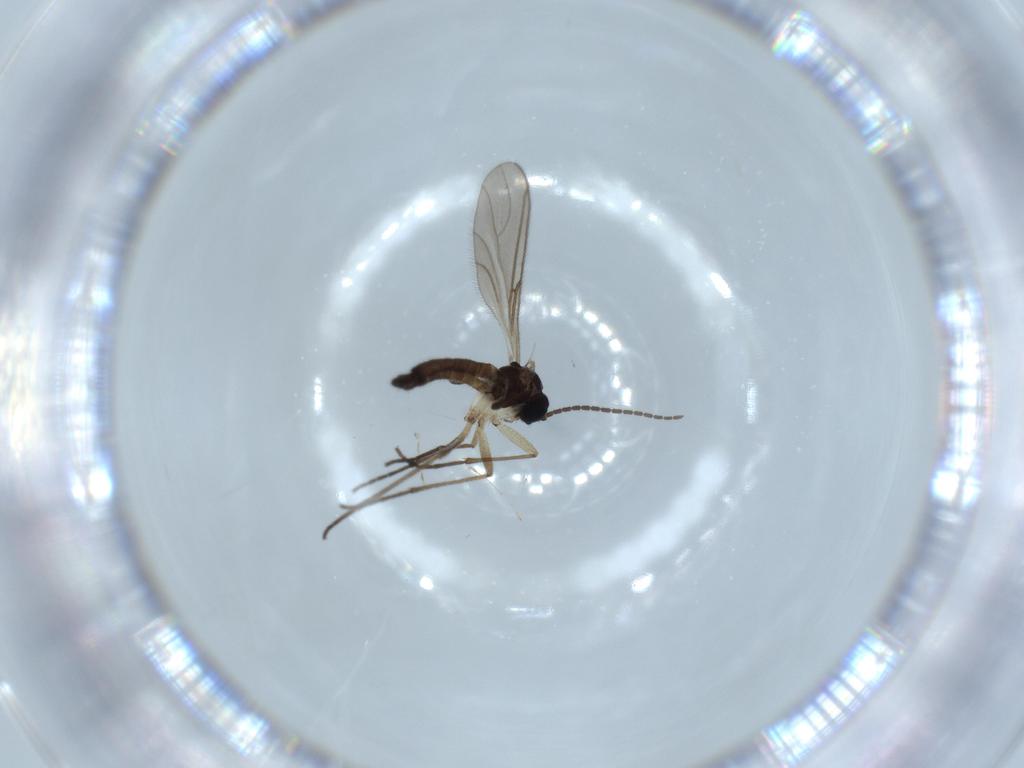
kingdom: Animalia
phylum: Arthropoda
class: Insecta
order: Diptera
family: Sciaridae
